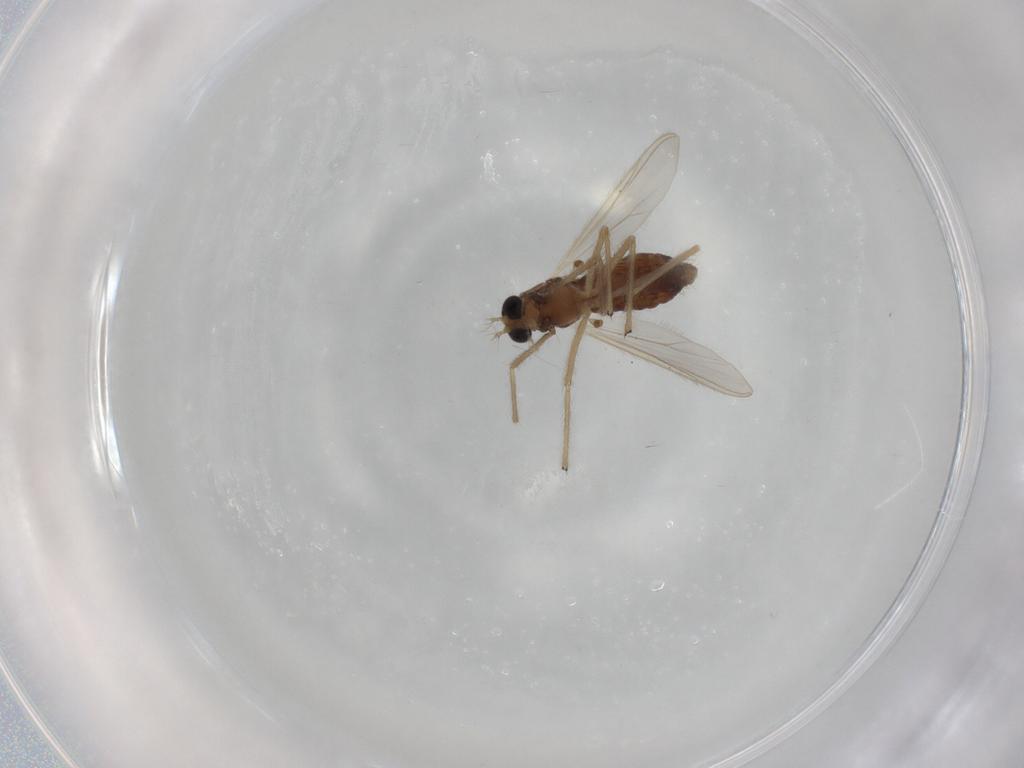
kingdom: Animalia
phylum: Arthropoda
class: Insecta
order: Diptera
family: Chironomidae
